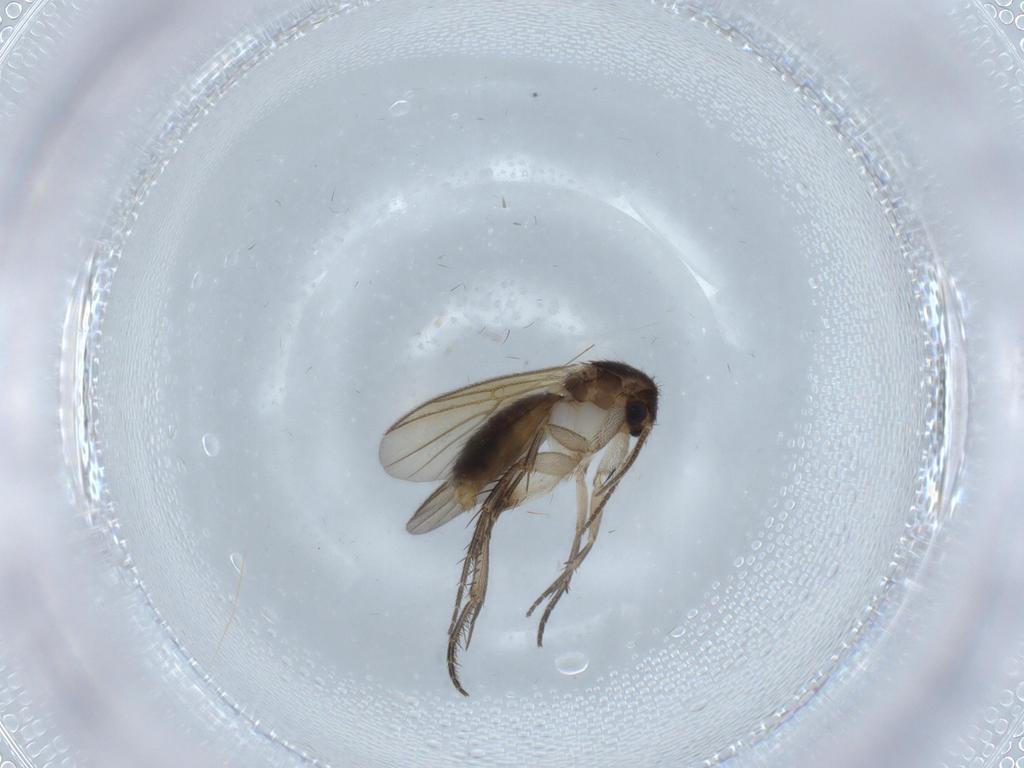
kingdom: Animalia
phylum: Arthropoda
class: Insecta
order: Diptera
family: Mycetophilidae
